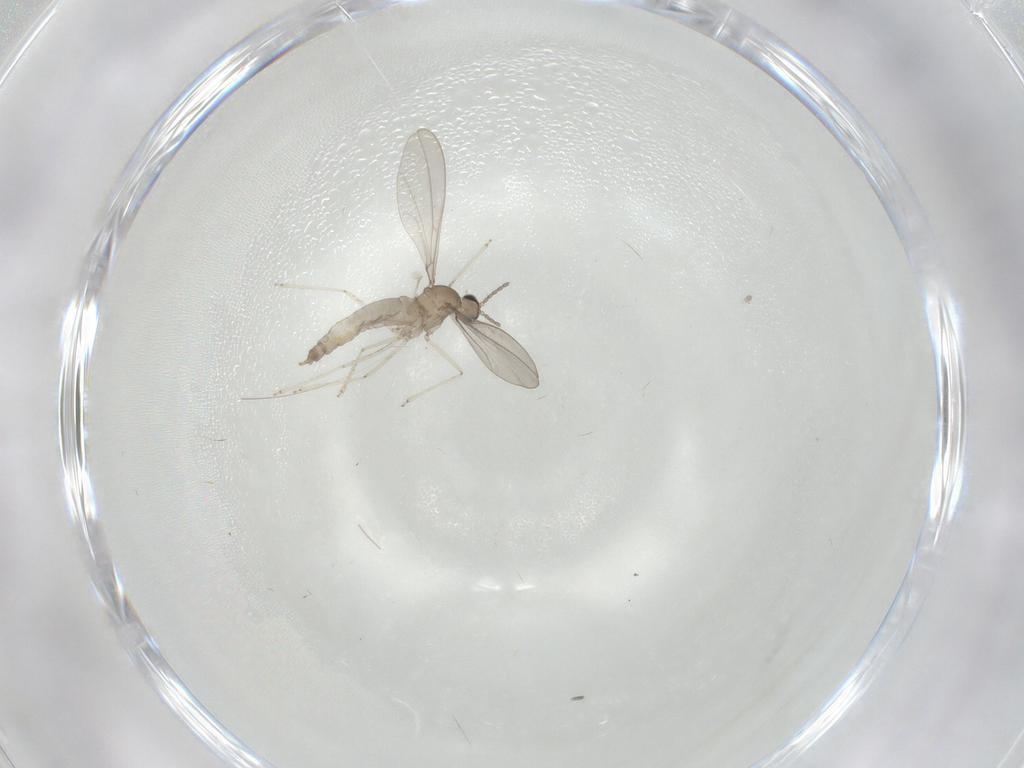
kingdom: Animalia
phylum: Arthropoda
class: Insecta
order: Diptera
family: Cecidomyiidae
